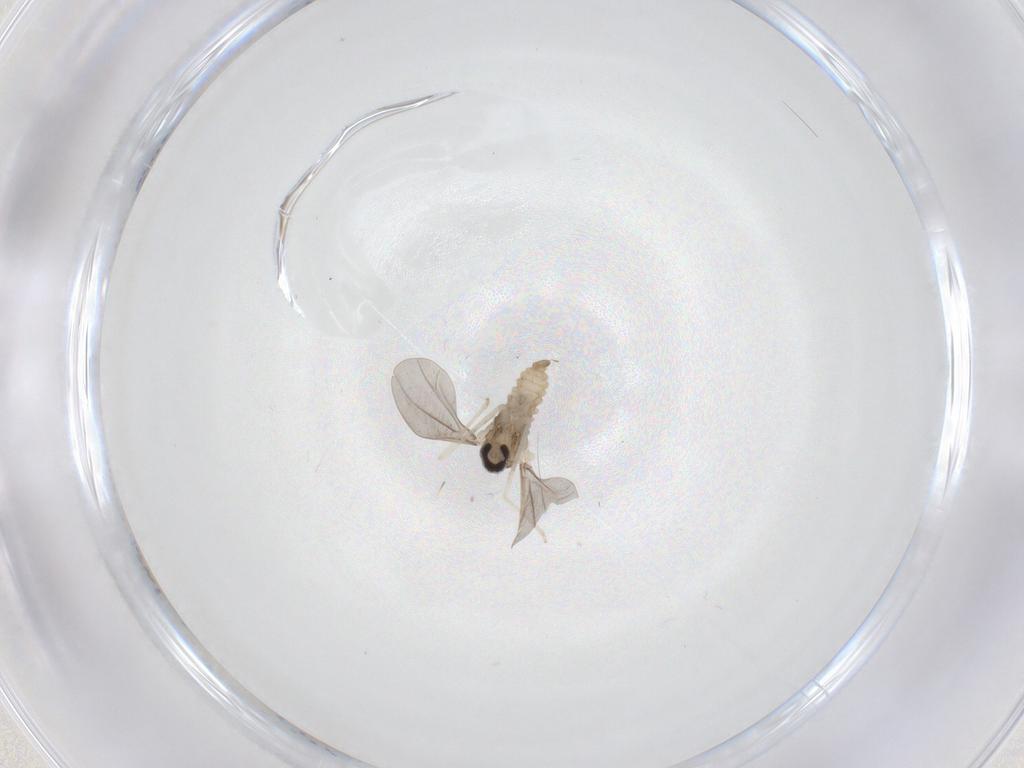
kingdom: Animalia
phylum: Arthropoda
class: Insecta
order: Diptera
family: Cecidomyiidae
